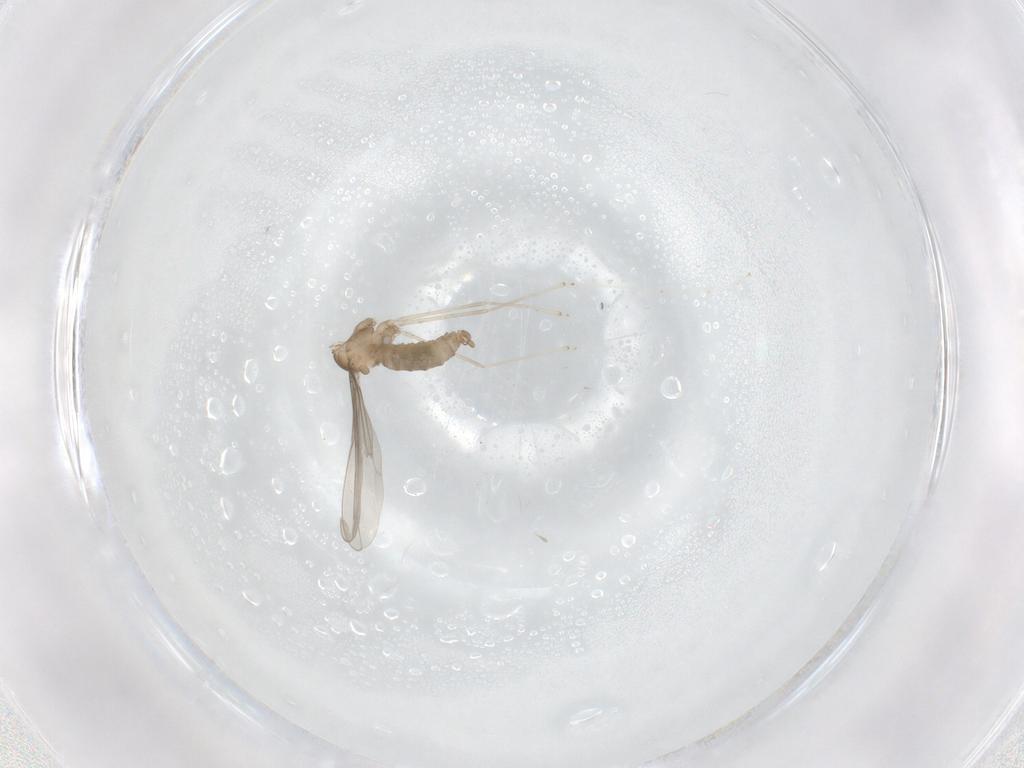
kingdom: Animalia
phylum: Arthropoda
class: Insecta
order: Diptera
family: Cecidomyiidae
